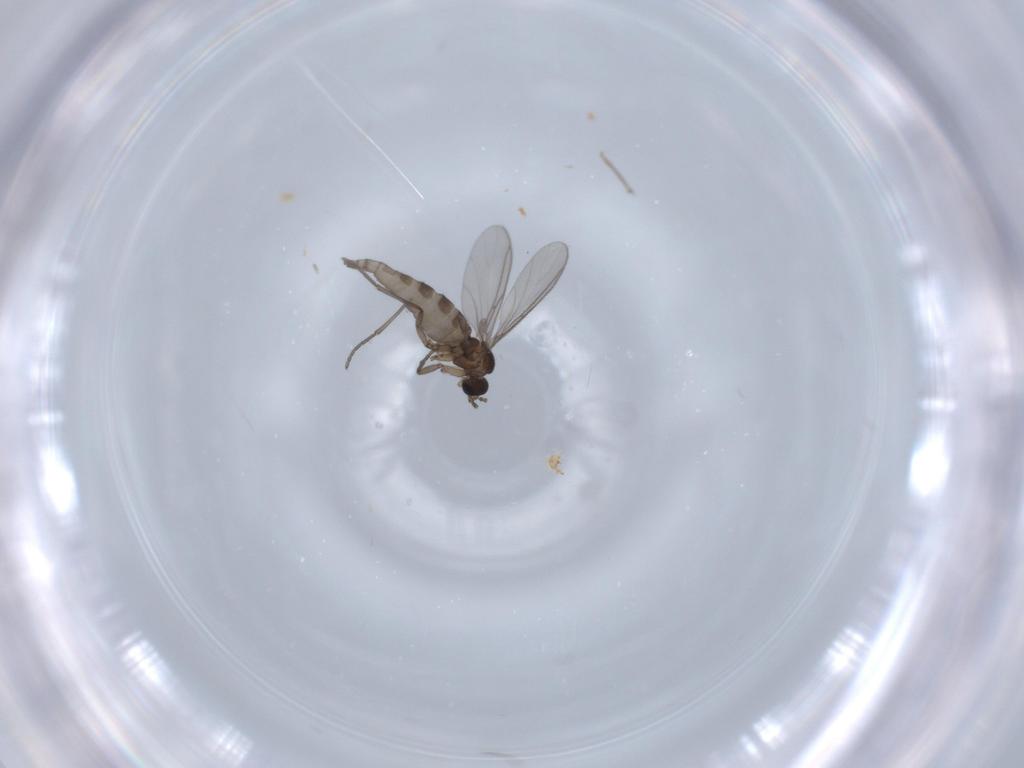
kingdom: Animalia
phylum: Arthropoda
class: Insecta
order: Diptera
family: Chironomidae
